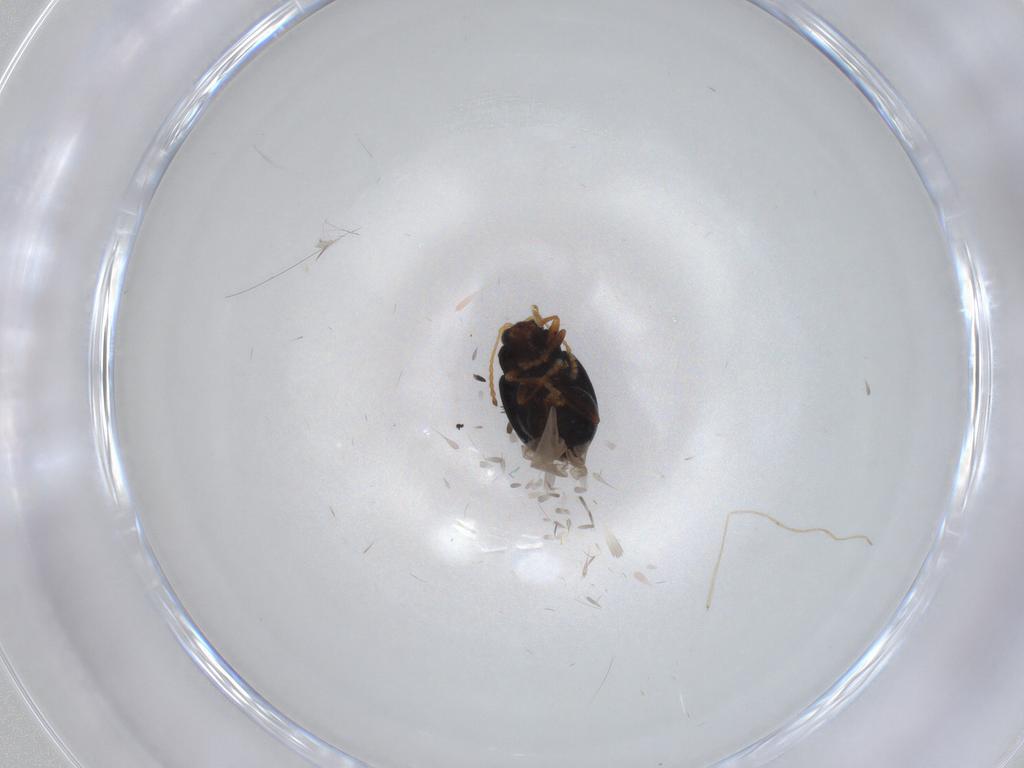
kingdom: Animalia
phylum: Arthropoda
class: Insecta
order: Coleoptera
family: Chrysomelidae
